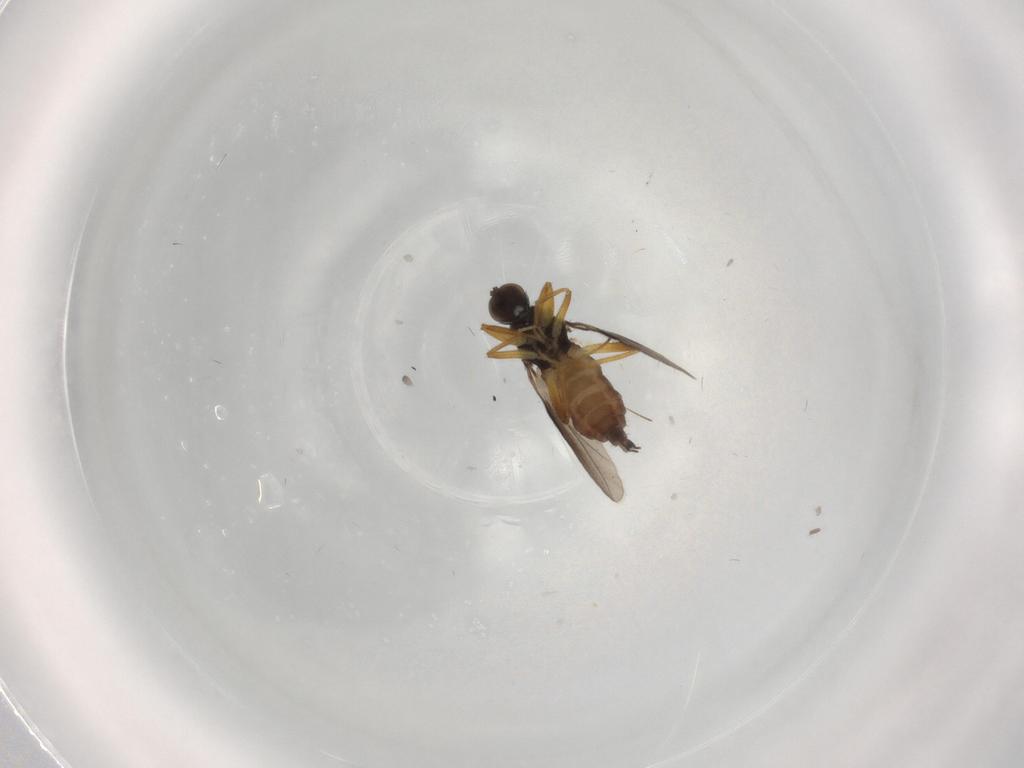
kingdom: Animalia
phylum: Arthropoda
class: Insecta
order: Diptera
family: Hybotidae
